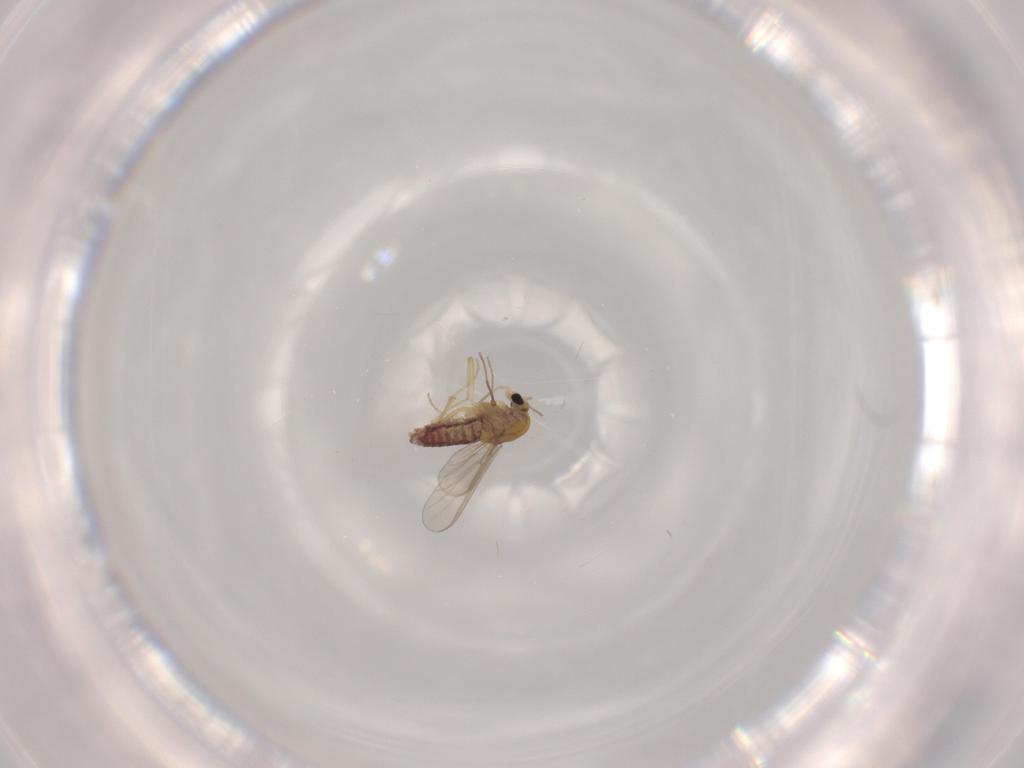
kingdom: Animalia
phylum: Arthropoda
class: Insecta
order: Diptera
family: Chironomidae
